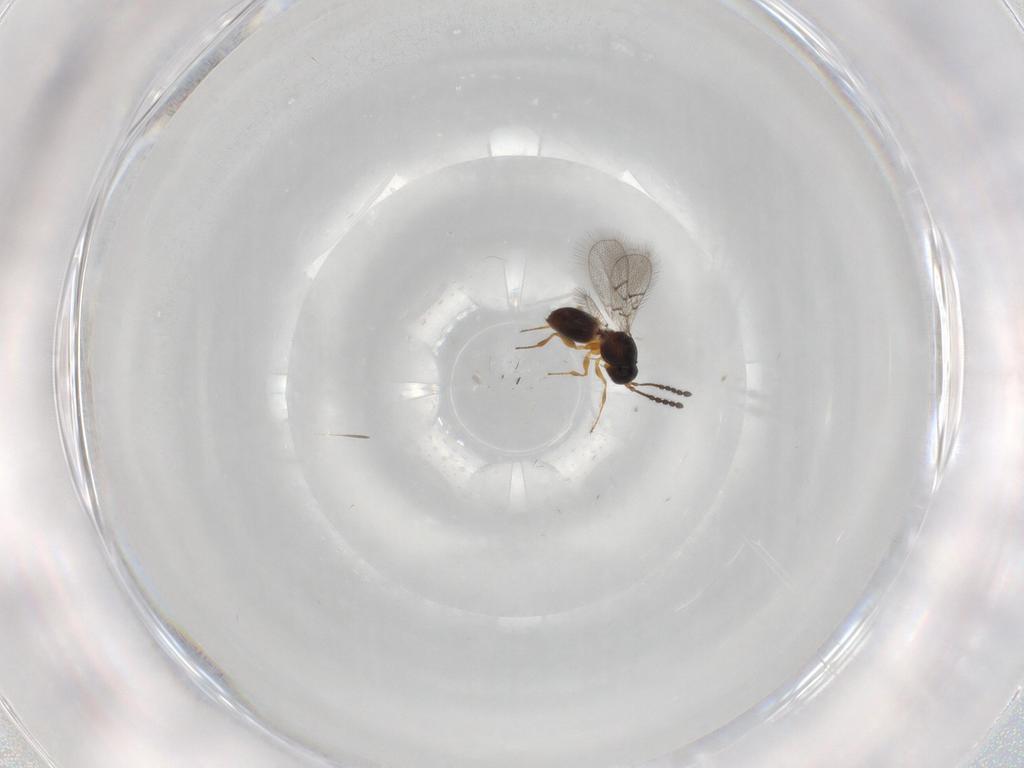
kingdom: Animalia
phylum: Arthropoda
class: Insecta
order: Hymenoptera
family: Figitidae
